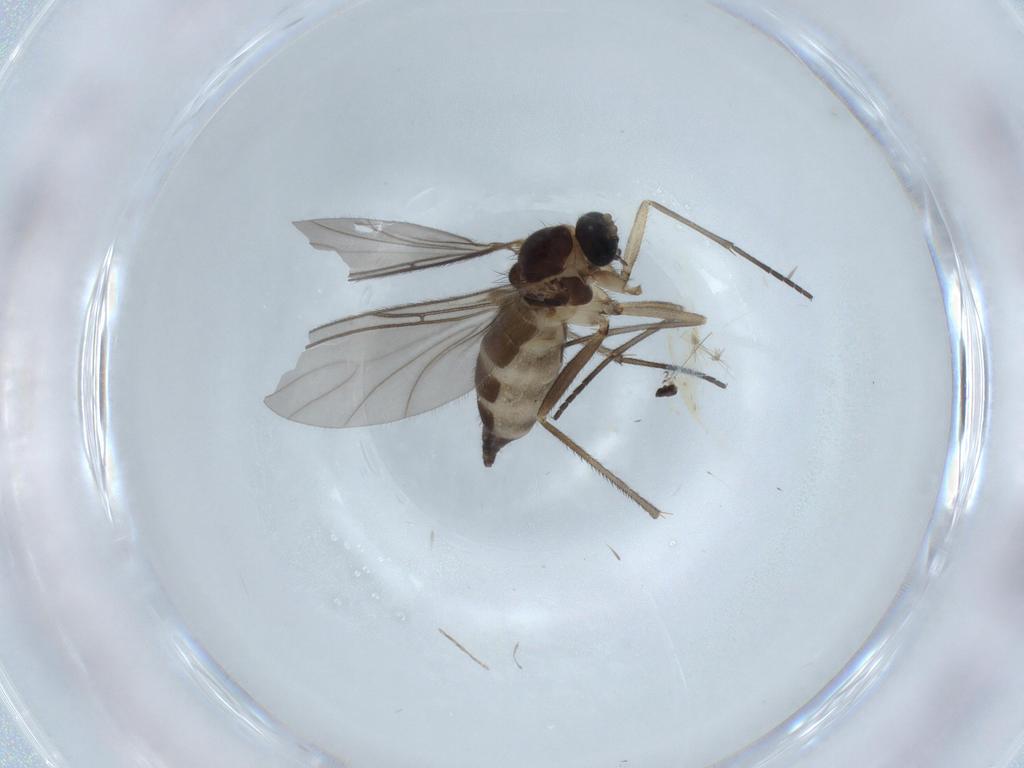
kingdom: Animalia
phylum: Arthropoda
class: Insecta
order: Diptera
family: Sciaridae
